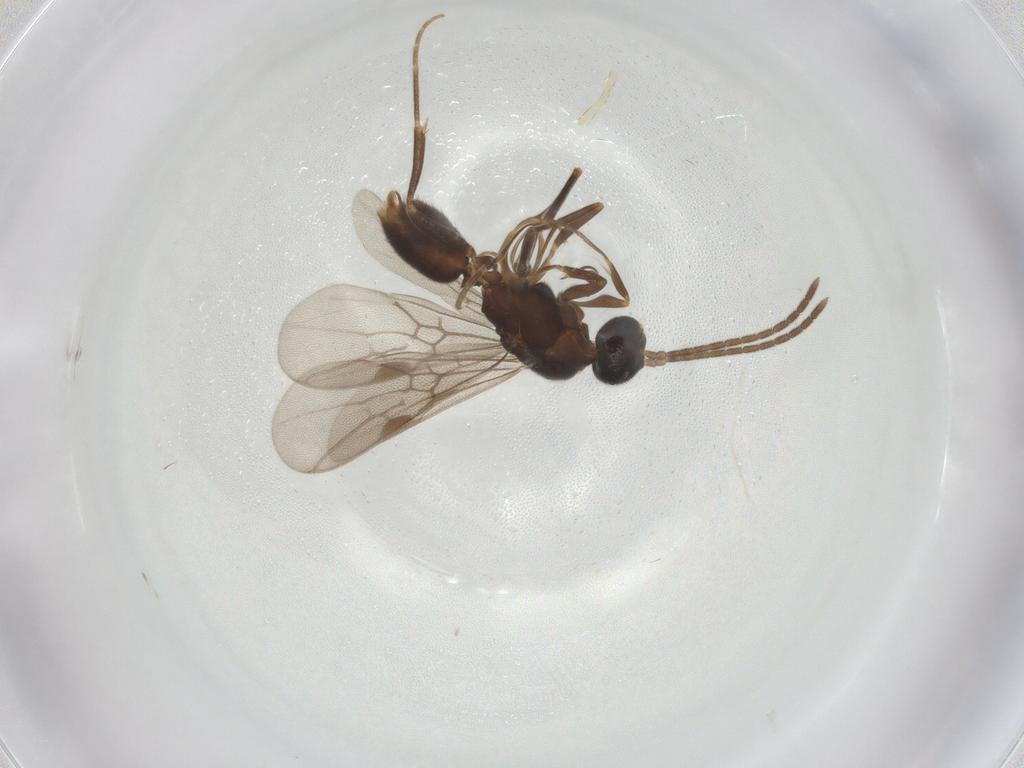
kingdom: Animalia
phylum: Arthropoda
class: Insecta
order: Hymenoptera
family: Formicidae
